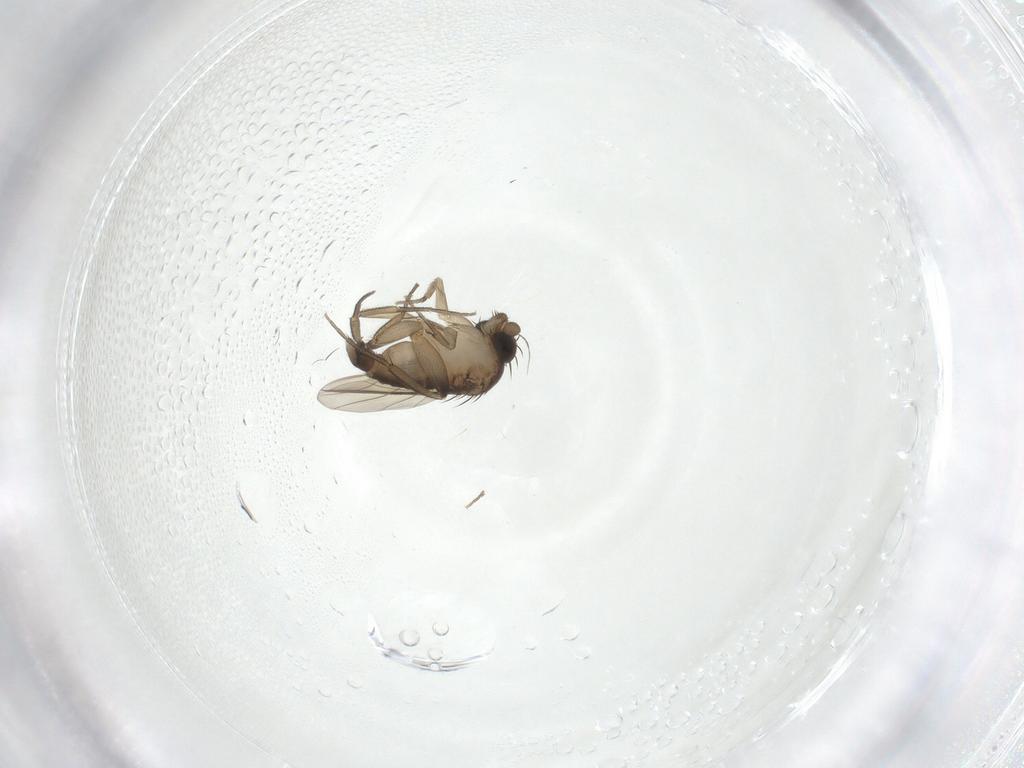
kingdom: Animalia
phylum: Arthropoda
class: Insecta
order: Diptera
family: Phoridae
